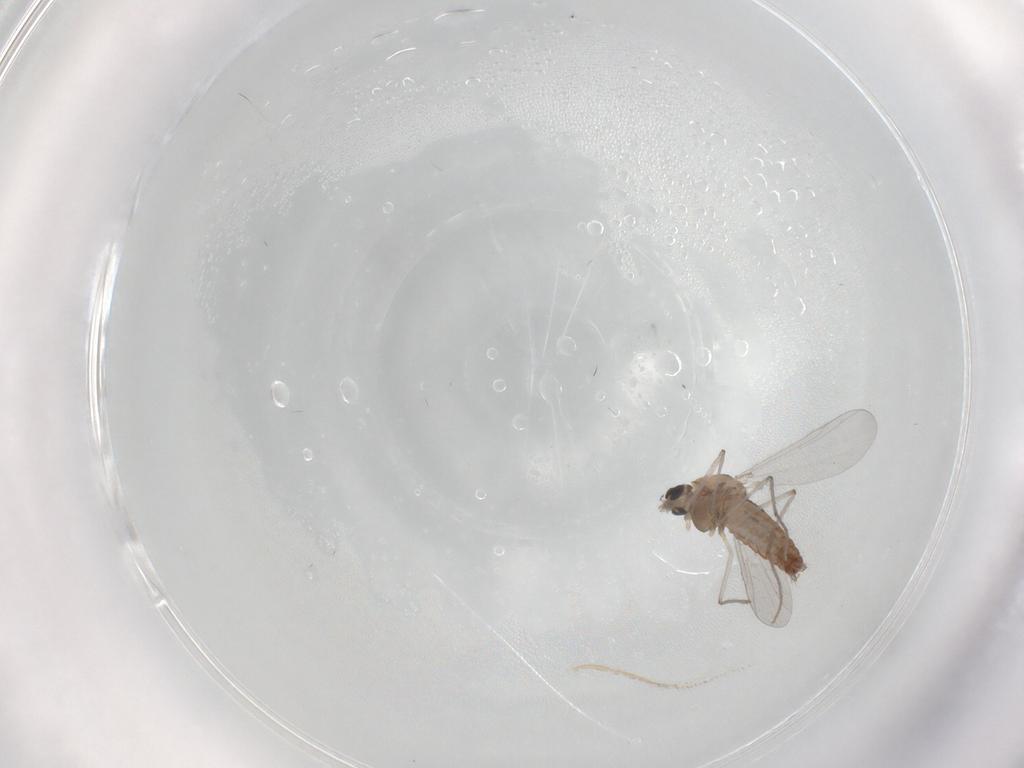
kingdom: Animalia
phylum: Arthropoda
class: Insecta
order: Diptera
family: Chironomidae
